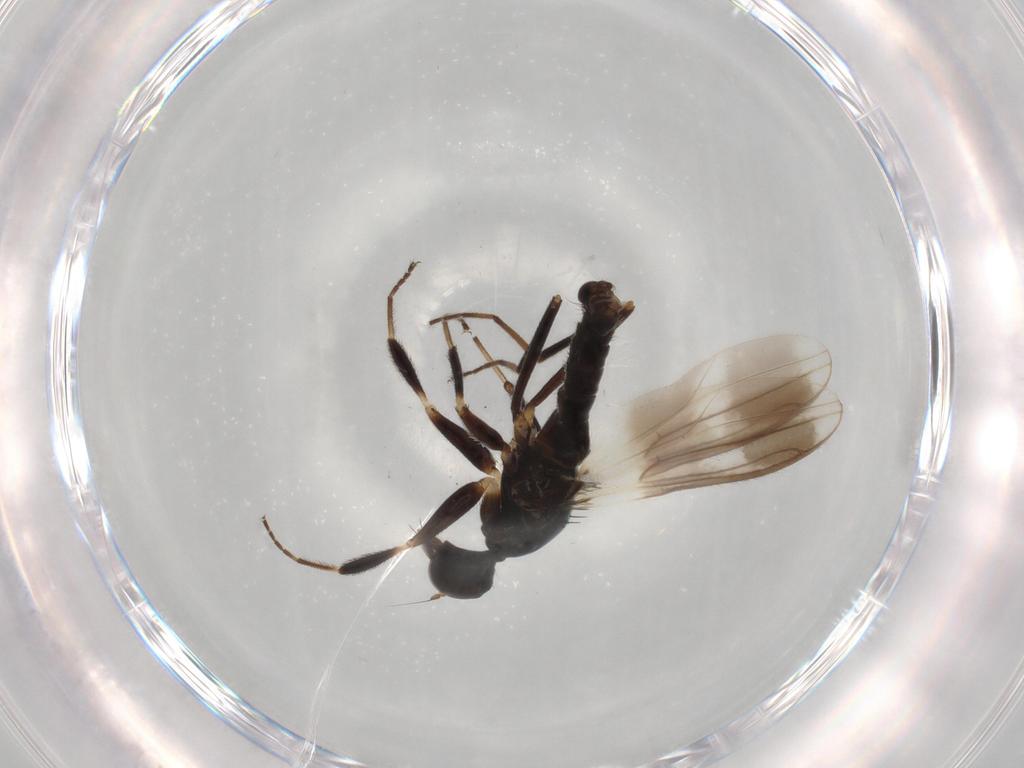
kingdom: Animalia
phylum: Arthropoda
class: Insecta
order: Diptera
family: Hybotidae
